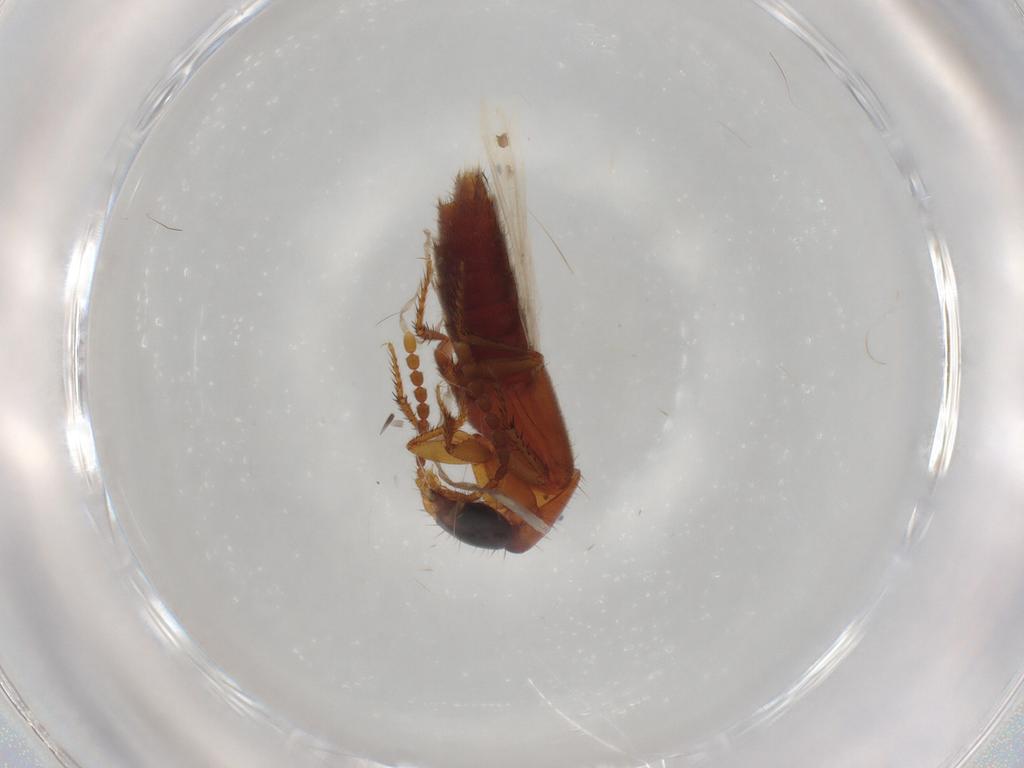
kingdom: Animalia
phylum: Arthropoda
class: Insecta
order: Coleoptera
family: Staphylinidae
